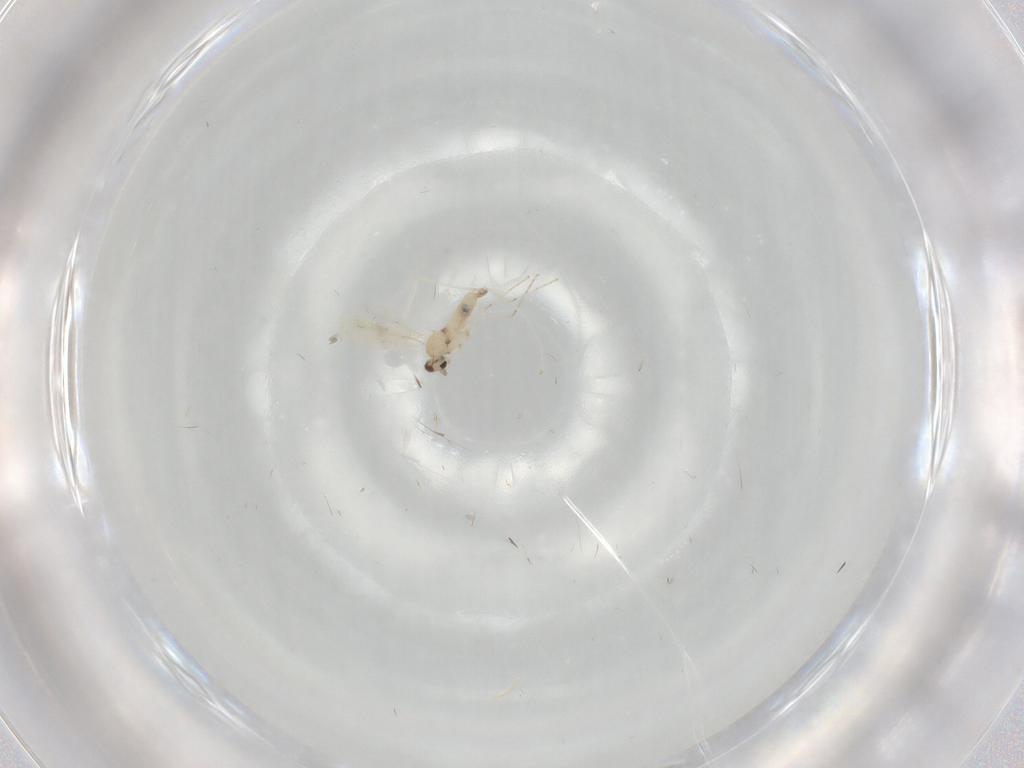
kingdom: Animalia
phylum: Arthropoda
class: Insecta
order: Diptera
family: Cecidomyiidae
